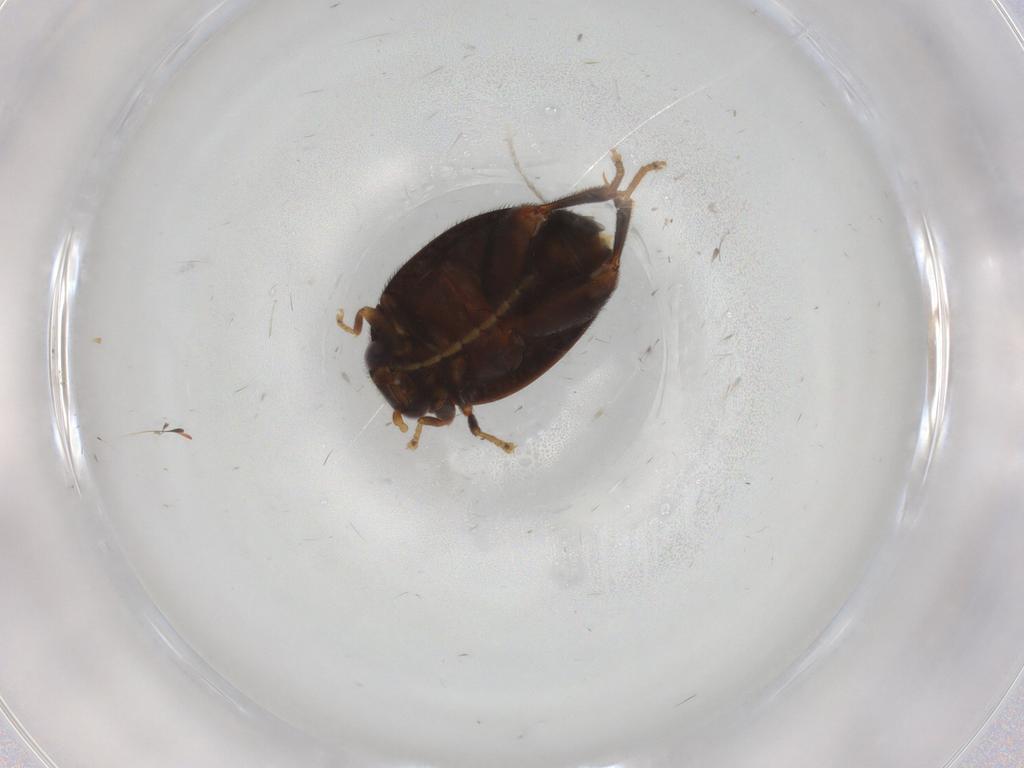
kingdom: Animalia
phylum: Arthropoda
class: Insecta
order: Coleoptera
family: Scirtidae
